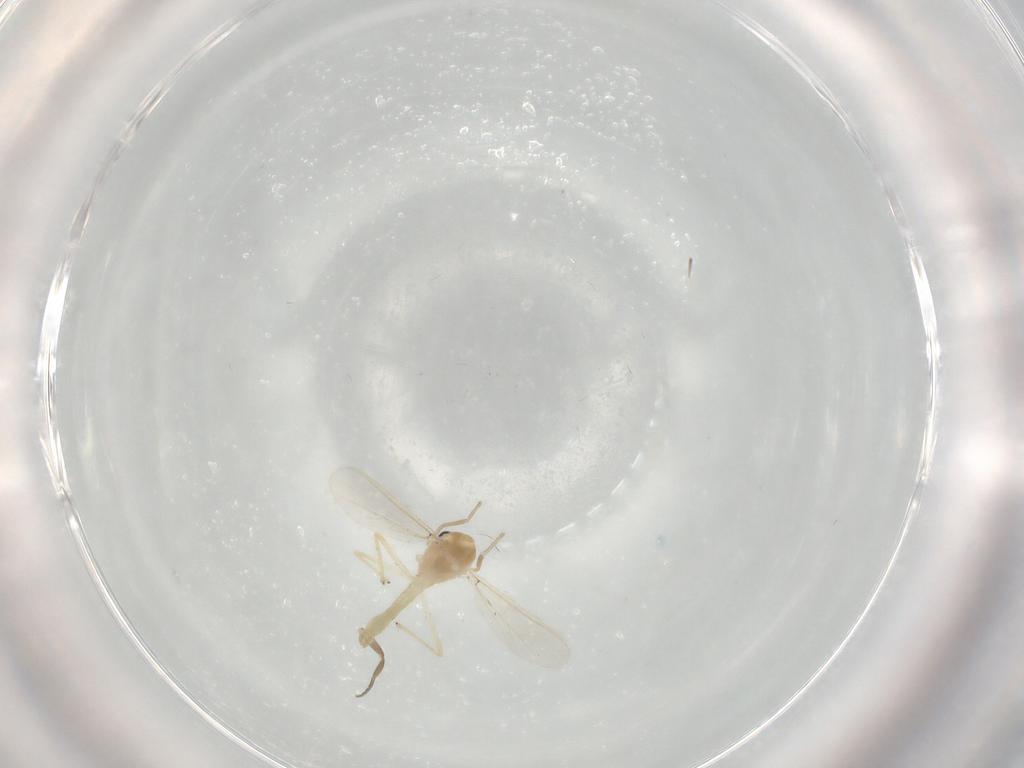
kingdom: Animalia
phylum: Arthropoda
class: Insecta
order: Diptera
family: Chironomidae
